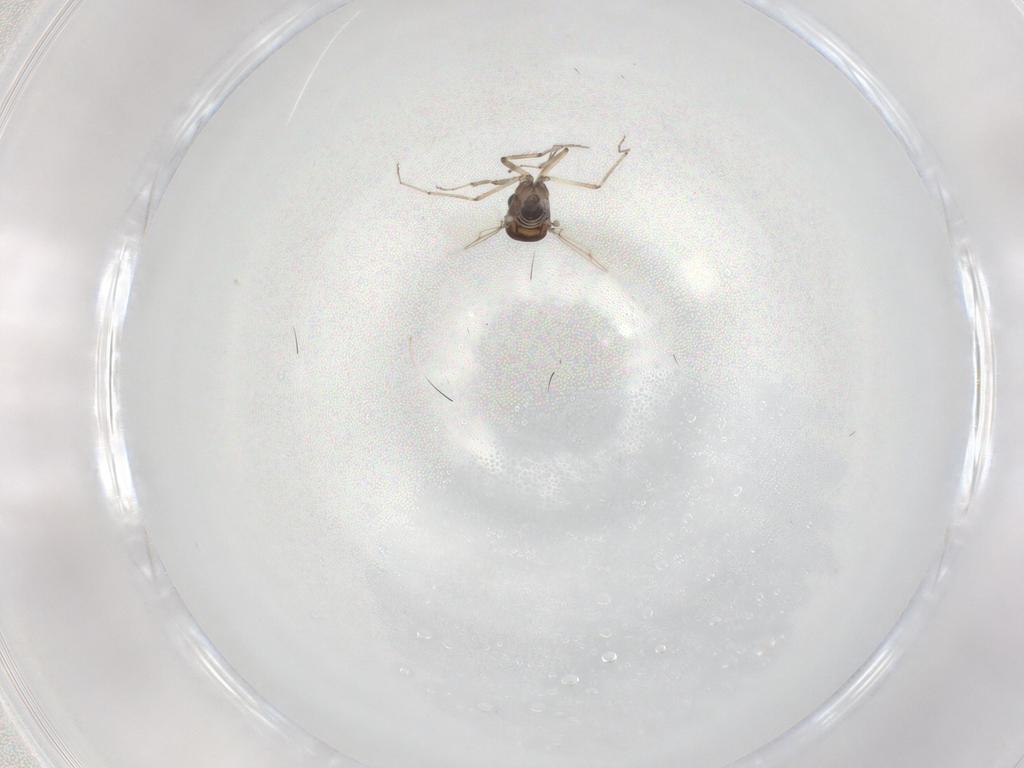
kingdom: Animalia
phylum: Arthropoda
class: Insecta
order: Diptera
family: Ceratopogonidae
